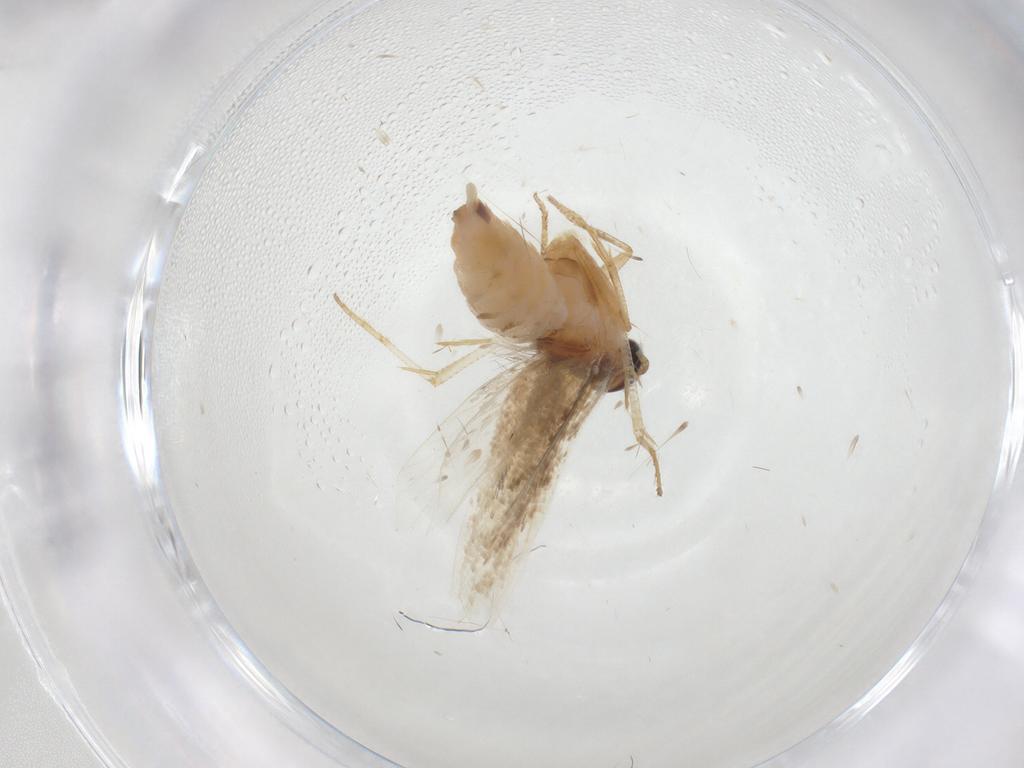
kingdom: Animalia
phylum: Arthropoda
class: Insecta
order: Lepidoptera
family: Gelechiidae
